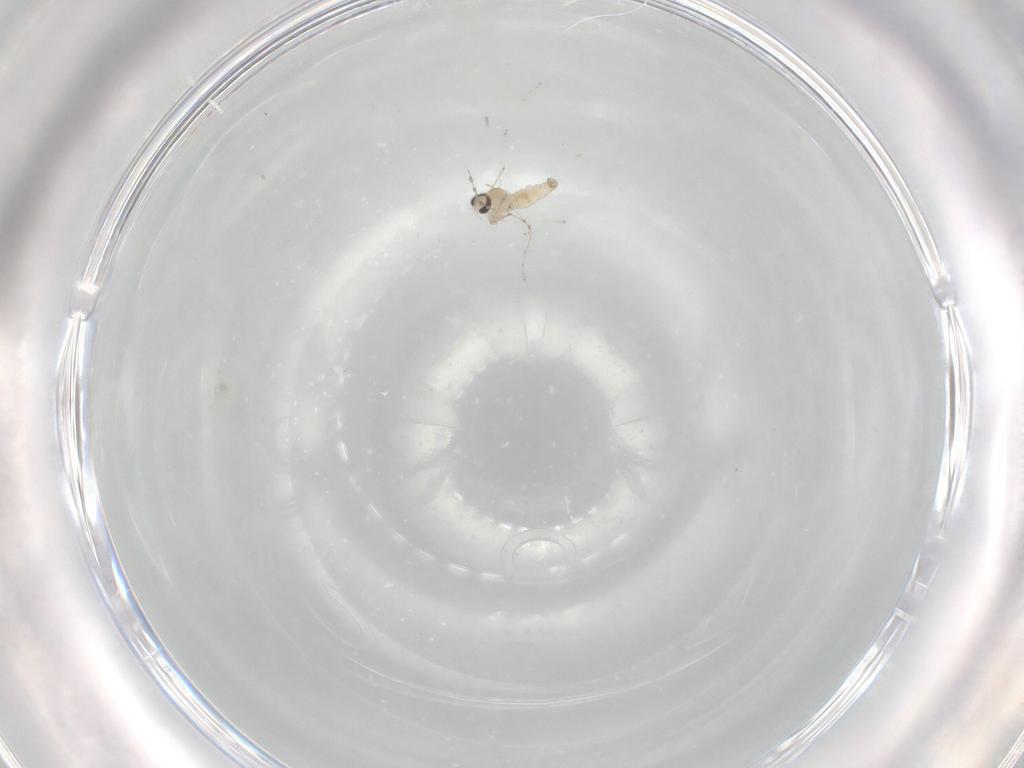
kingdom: Animalia
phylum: Arthropoda
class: Insecta
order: Diptera
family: Cecidomyiidae
